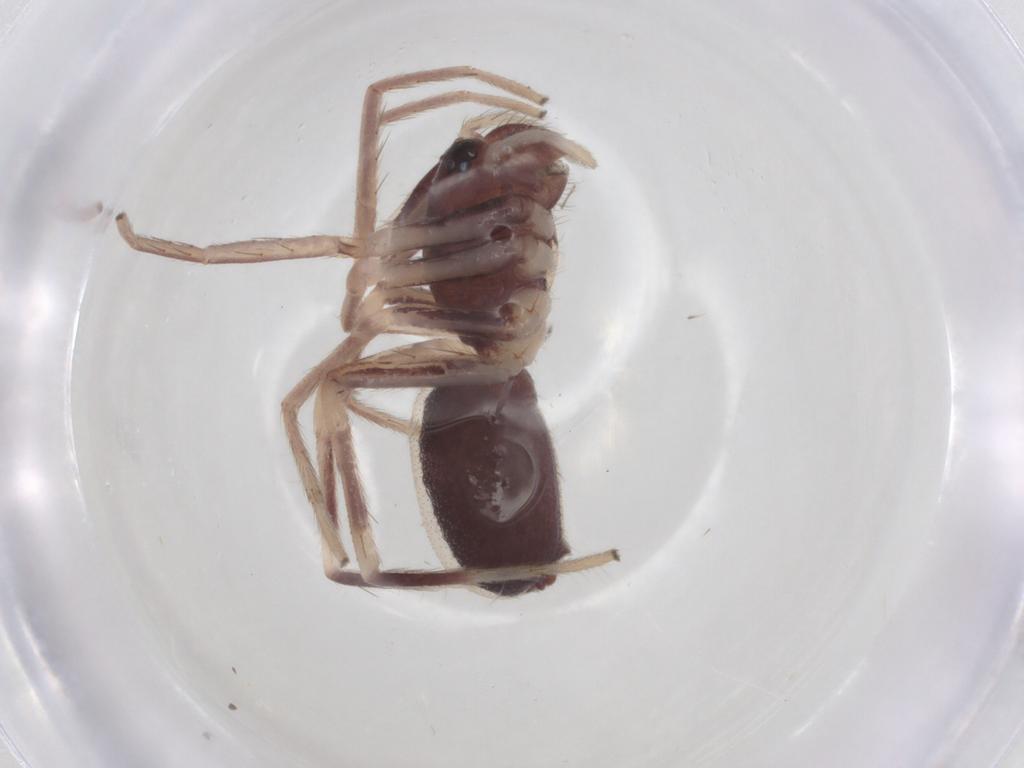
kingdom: Animalia
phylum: Arthropoda
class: Arachnida
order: Araneae
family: Corinnidae
